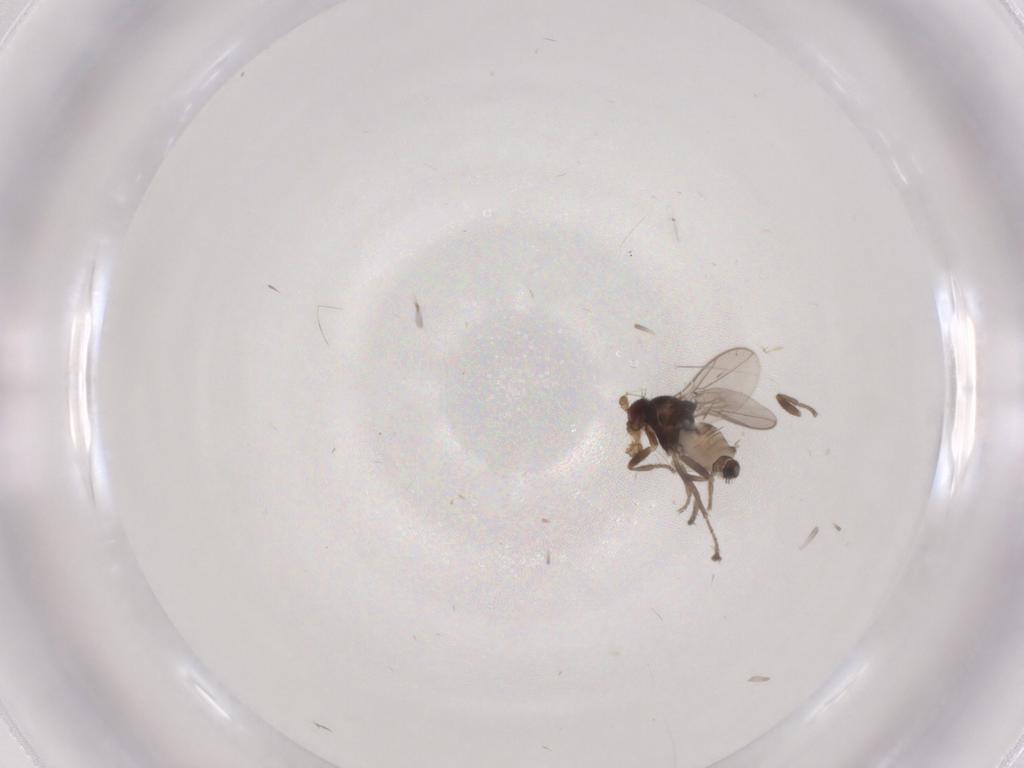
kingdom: Animalia
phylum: Arthropoda
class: Insecta
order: Diptera
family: Sphaeroceridae
